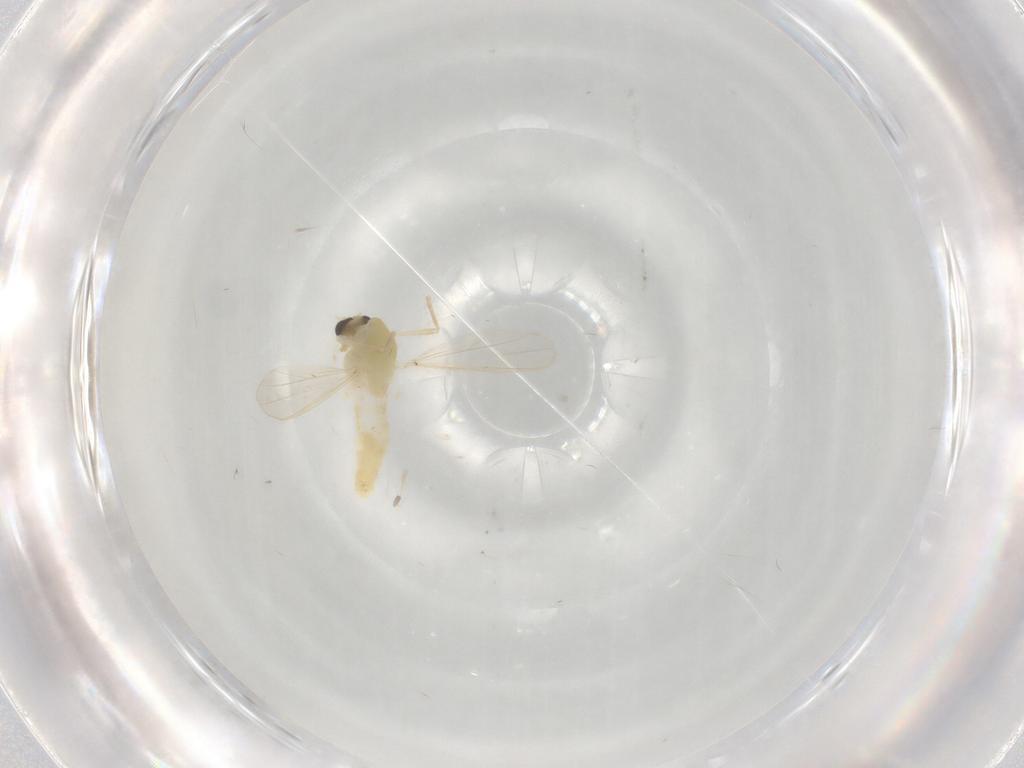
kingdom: Animalia
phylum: Arthropoda
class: Insecta
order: Diptera
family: Chironomidae
